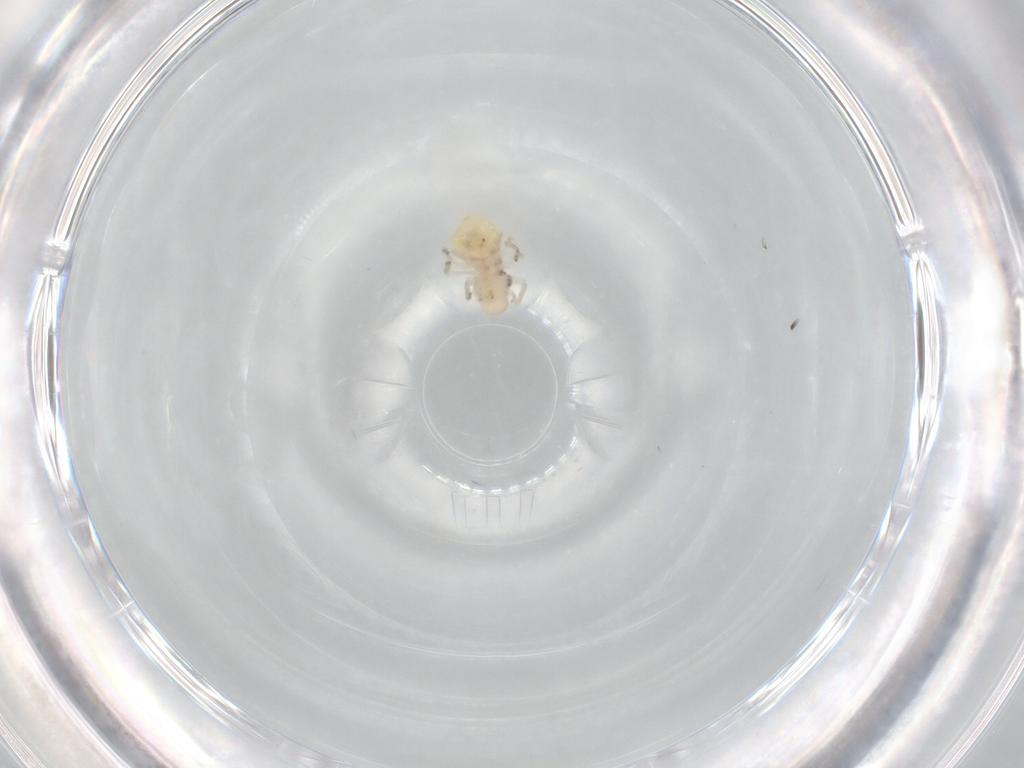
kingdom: Animalia
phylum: Arthropoda
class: Insecta
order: Psocodea
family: Caeciliusidae
